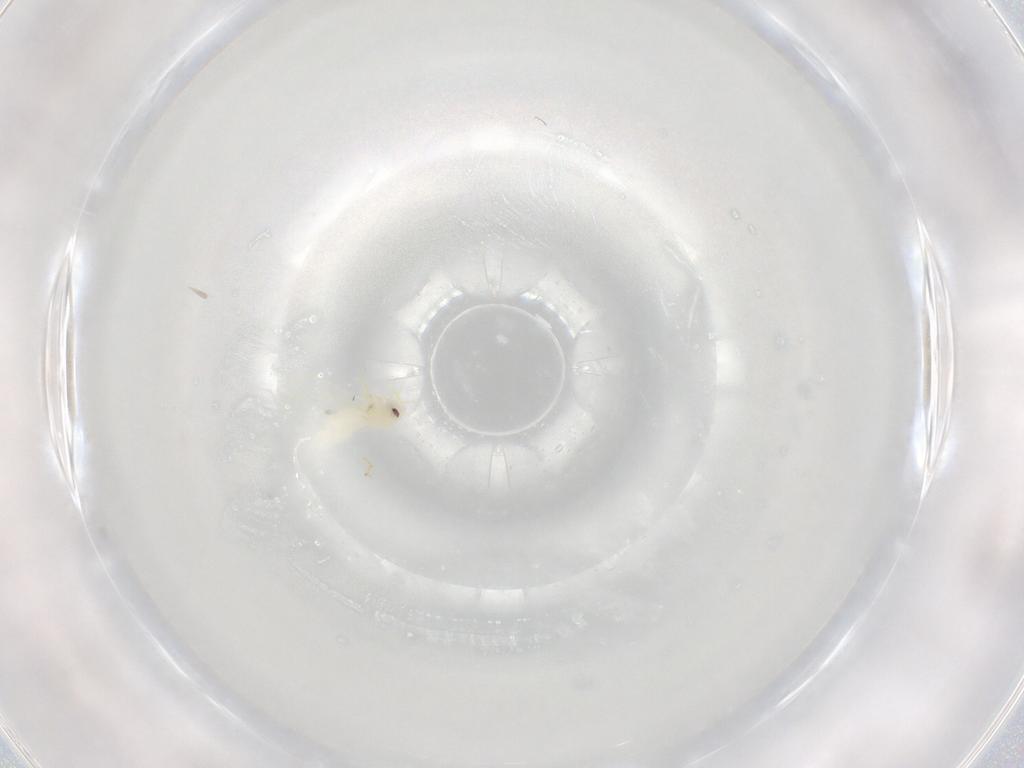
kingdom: Animalia
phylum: Arthropoda
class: Insecta
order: Hemiptera
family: Aleyrodidae
